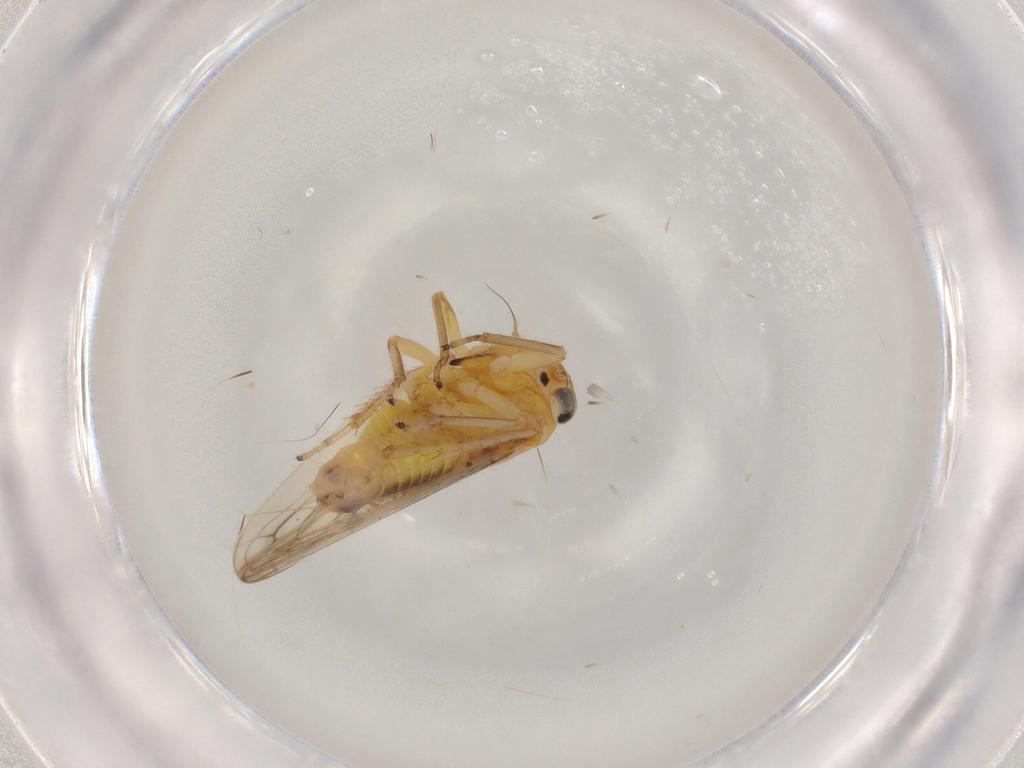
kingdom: Animalia
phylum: Arthropoda
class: Insecta
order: Hemiptera
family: Cicadellidae
